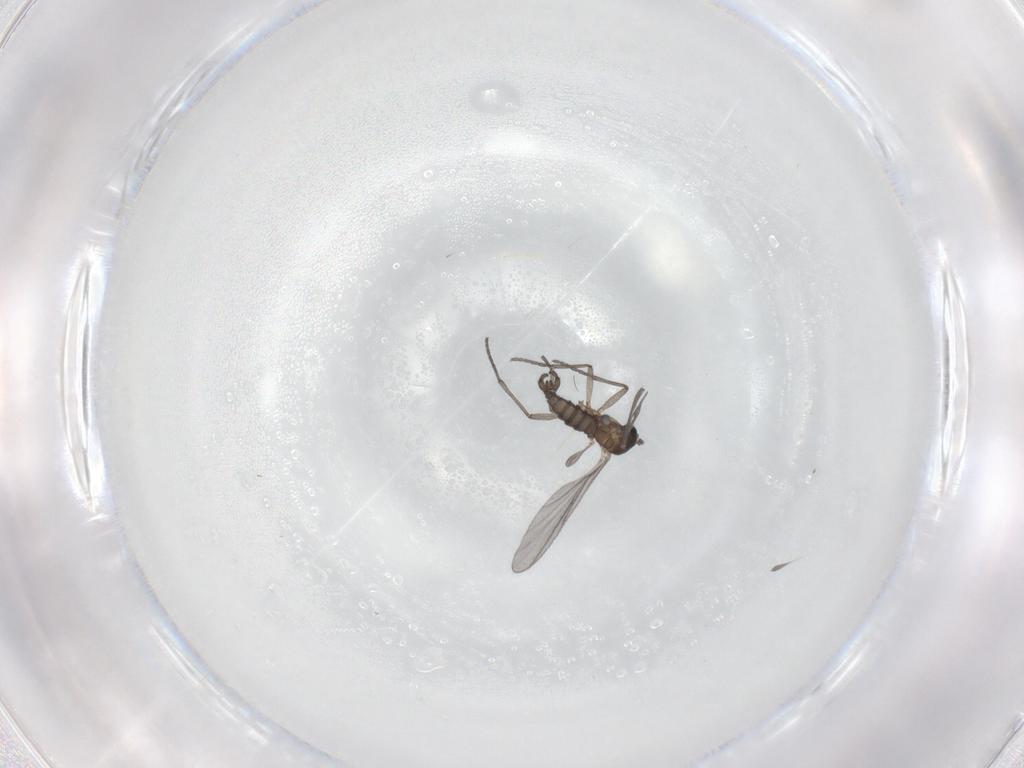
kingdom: Animalia
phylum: Arthropoda
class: Insecta
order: Diptera
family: Sciaridae
